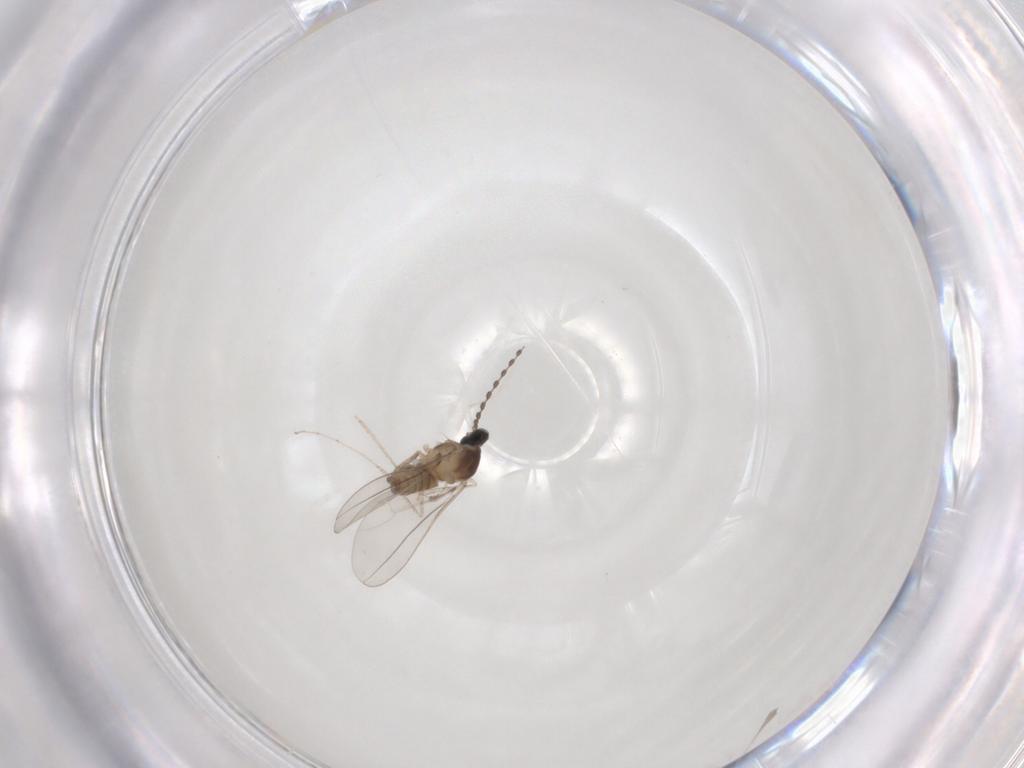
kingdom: Animalia
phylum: Arthropoda
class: Insecta
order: Diptera
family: Cecidomyiidae
